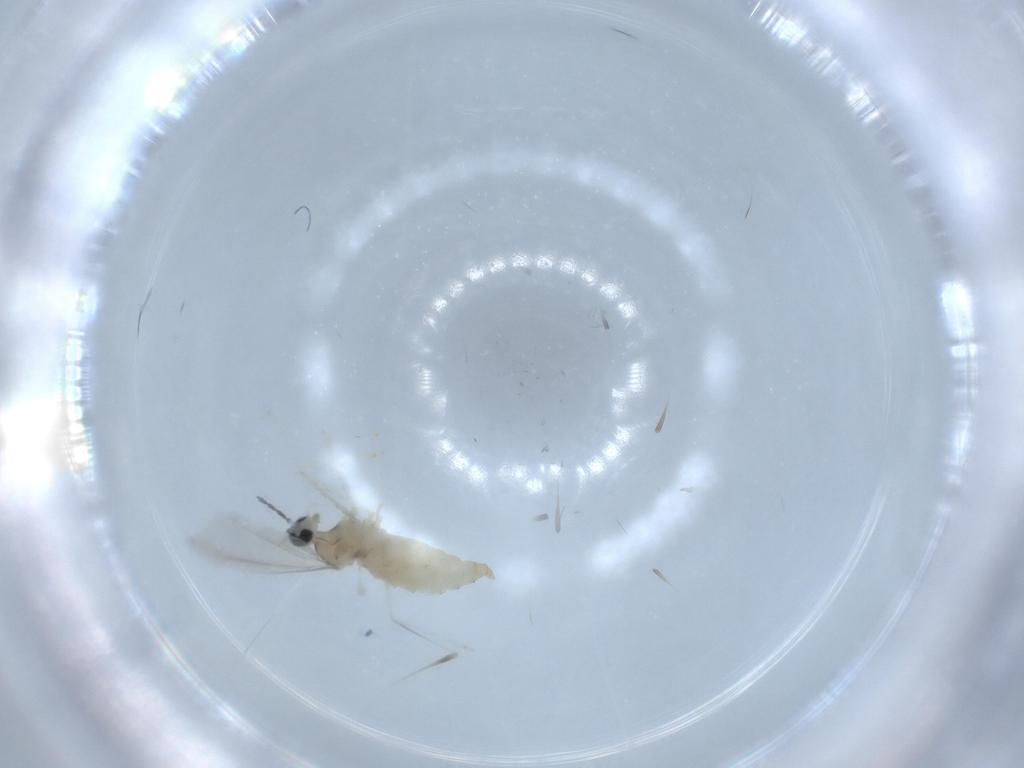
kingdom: Animalia
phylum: Arthropoda
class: Insecta
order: Diptera
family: Cecidomyiidae
